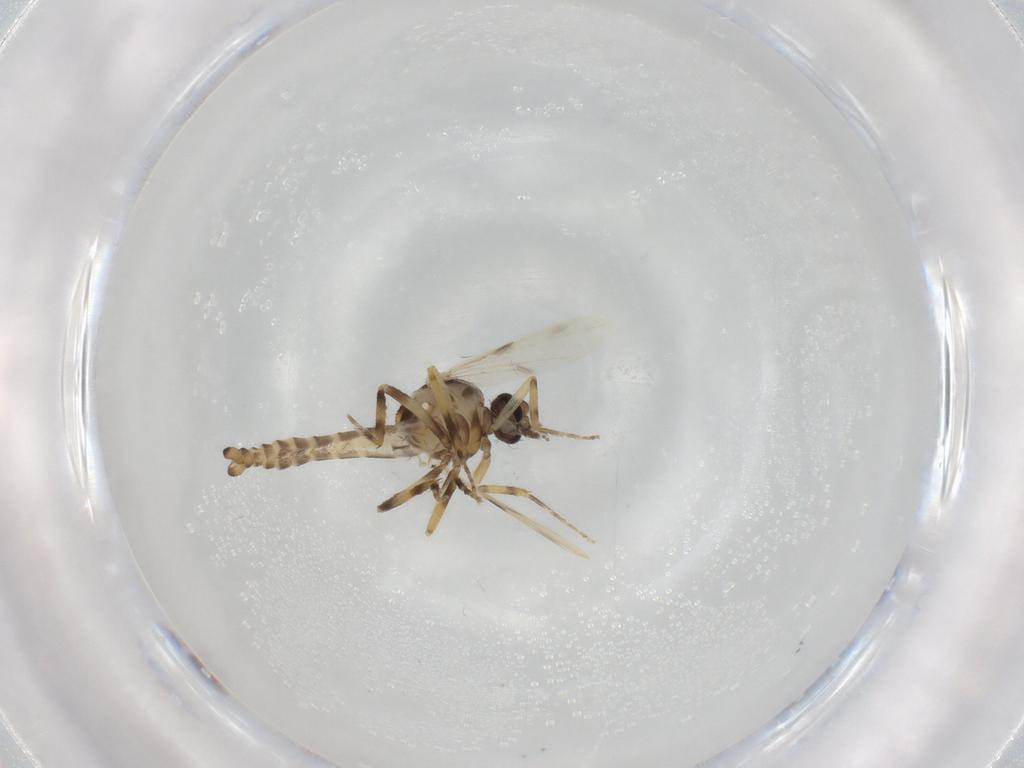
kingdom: Animalia
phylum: Arthropoda
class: Insecta
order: Diptera
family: Ceratopogonidae
